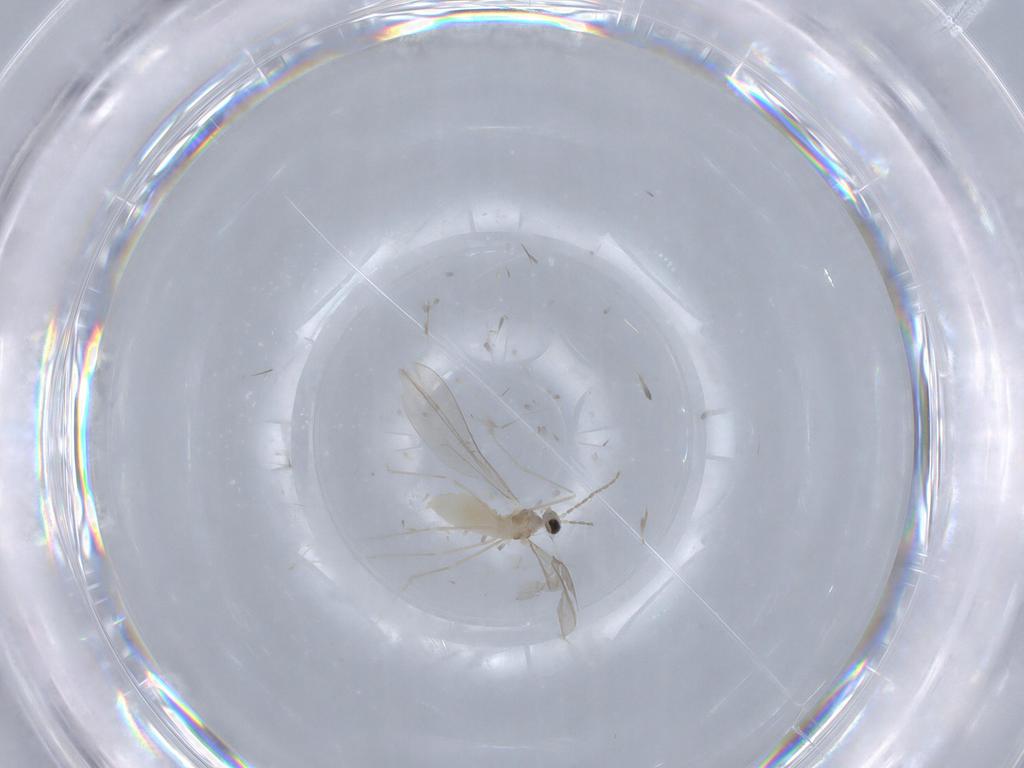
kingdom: Animalia
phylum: Arthropoda
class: Insecta
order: Diptera
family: Cecidomyiidae
